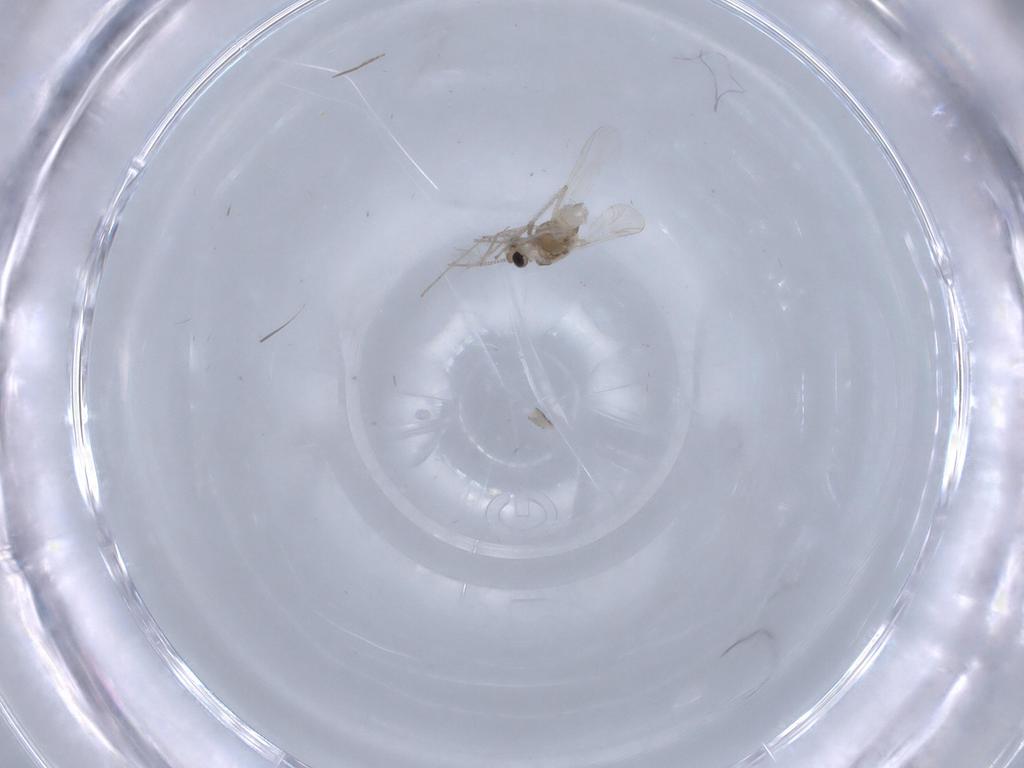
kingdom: Animalia
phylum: Arthropoda
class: Insecta
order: Diptera
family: Chironomidae
